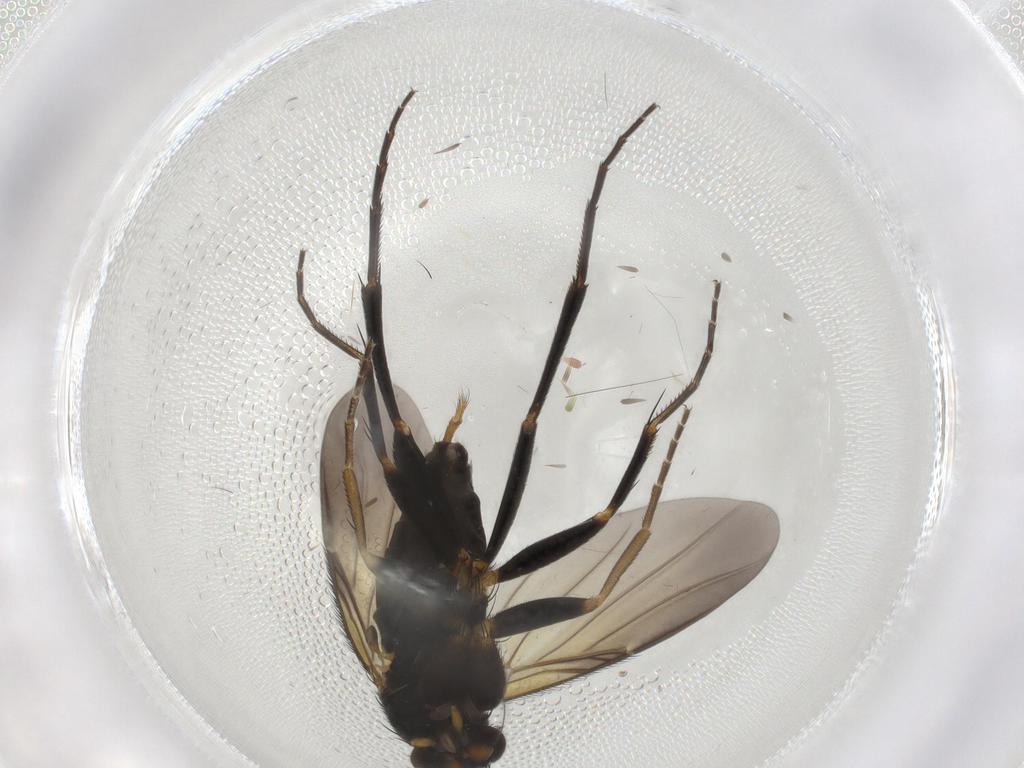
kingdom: Animalia
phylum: Arthropoda
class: Insecta
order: Diptera
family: Phoridae
